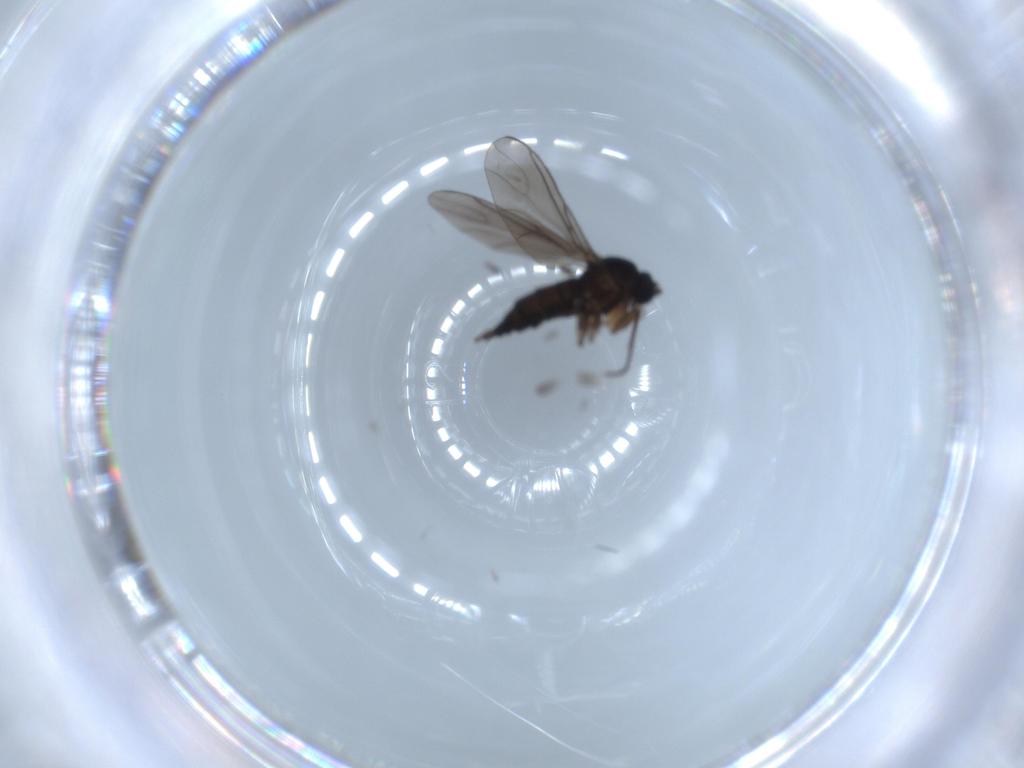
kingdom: Animalia
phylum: Arthropoda
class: Insecta
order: Diptera
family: Sciaridae
